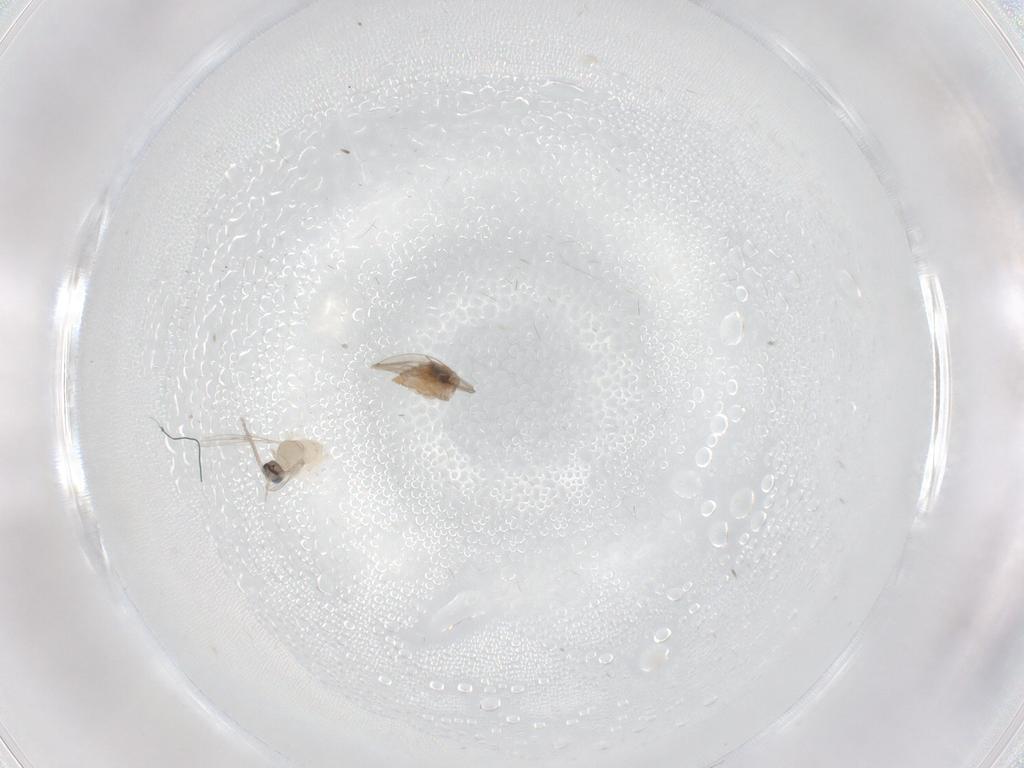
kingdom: Animalia
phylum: Arthropoda
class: Insecta
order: Diptera
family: Cecidomyiidae
